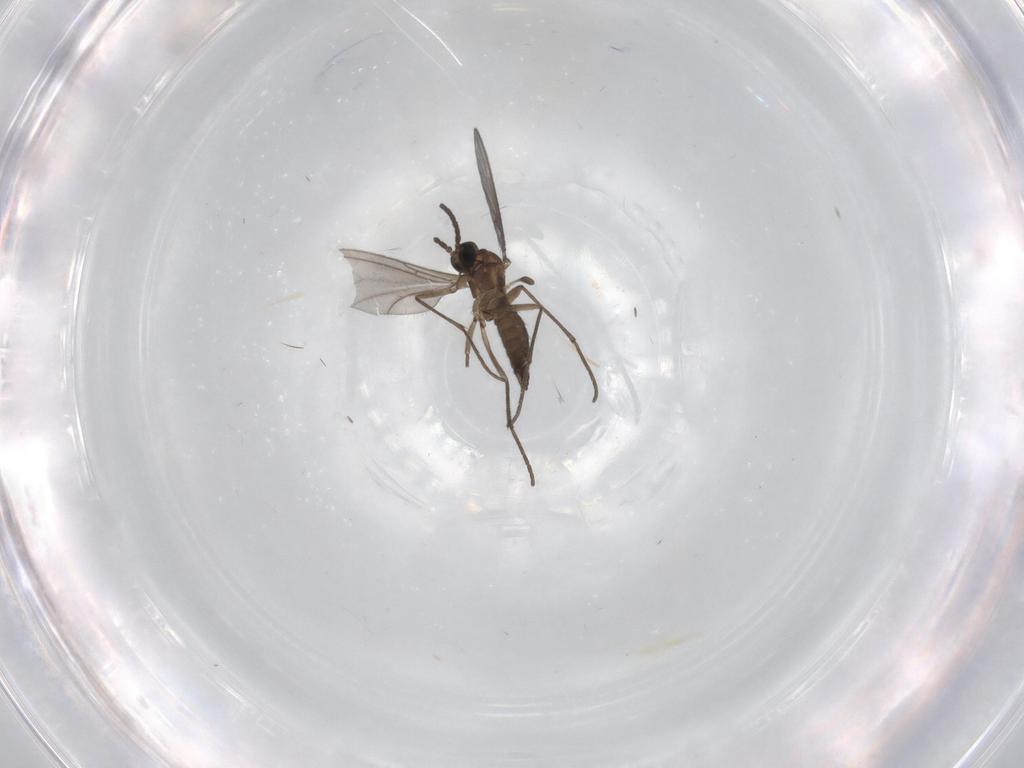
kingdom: Animalia
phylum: Arthropoda
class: Insecta
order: Diptera
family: Sciaridae
